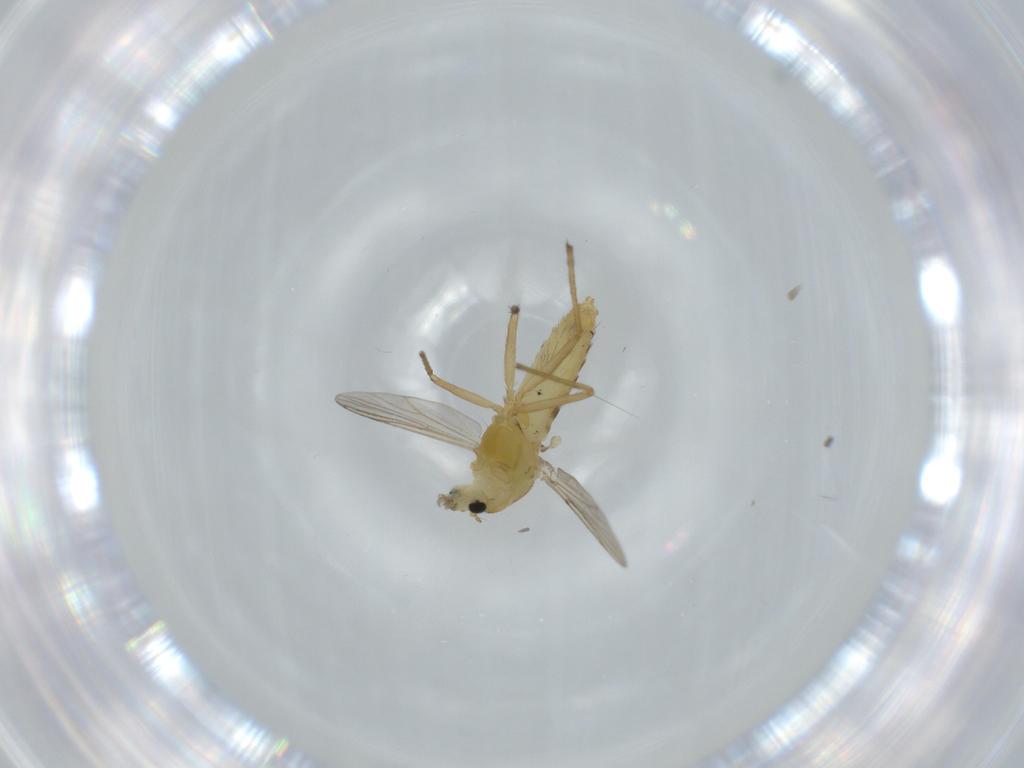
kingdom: Animalia
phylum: Arthropoda
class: Insecta
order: Diptera
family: Chironomidae
